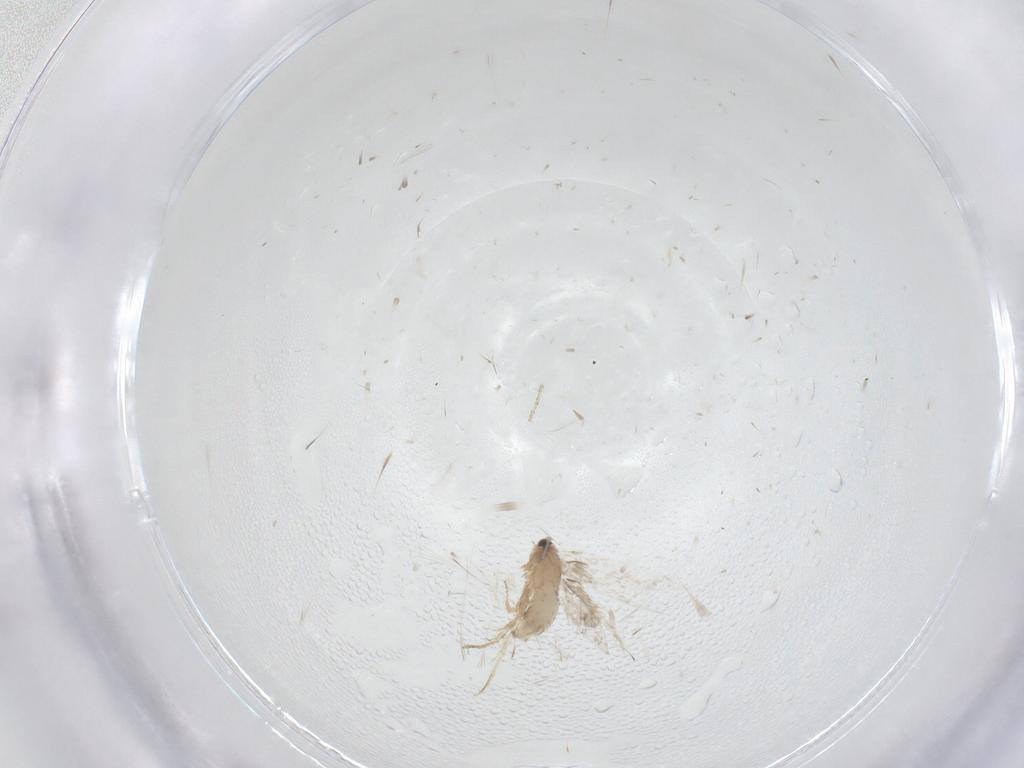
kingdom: Animalia
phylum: Arthropoda
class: Insecta
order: Lepidoptera
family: Nepticulidae
